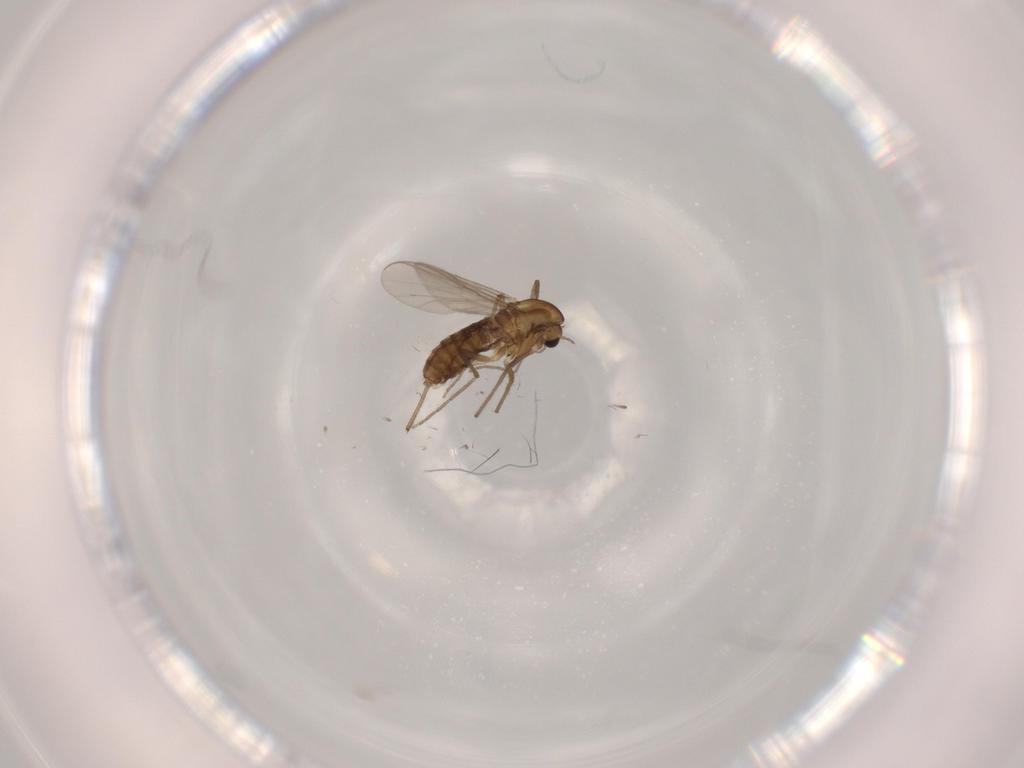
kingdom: Animalia
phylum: Arthropoda
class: Insecta
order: Diptera
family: Chironomidae
